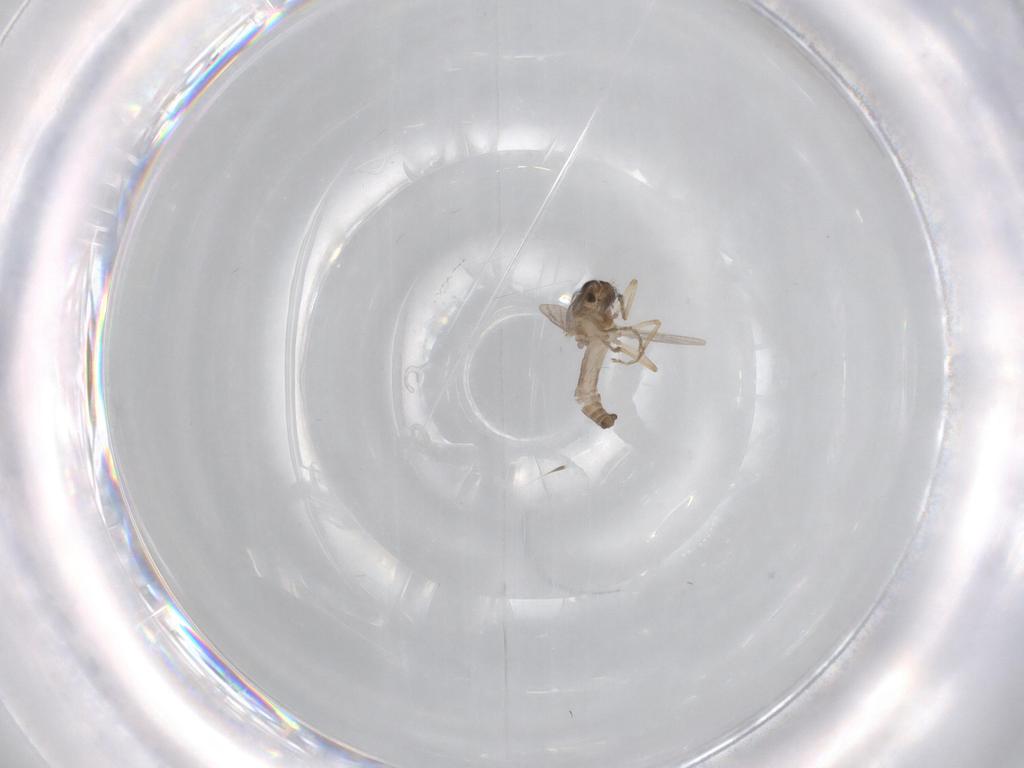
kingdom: Animalia
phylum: Arthropoda
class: Insecta
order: Diptera
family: Ceratopogonidae
